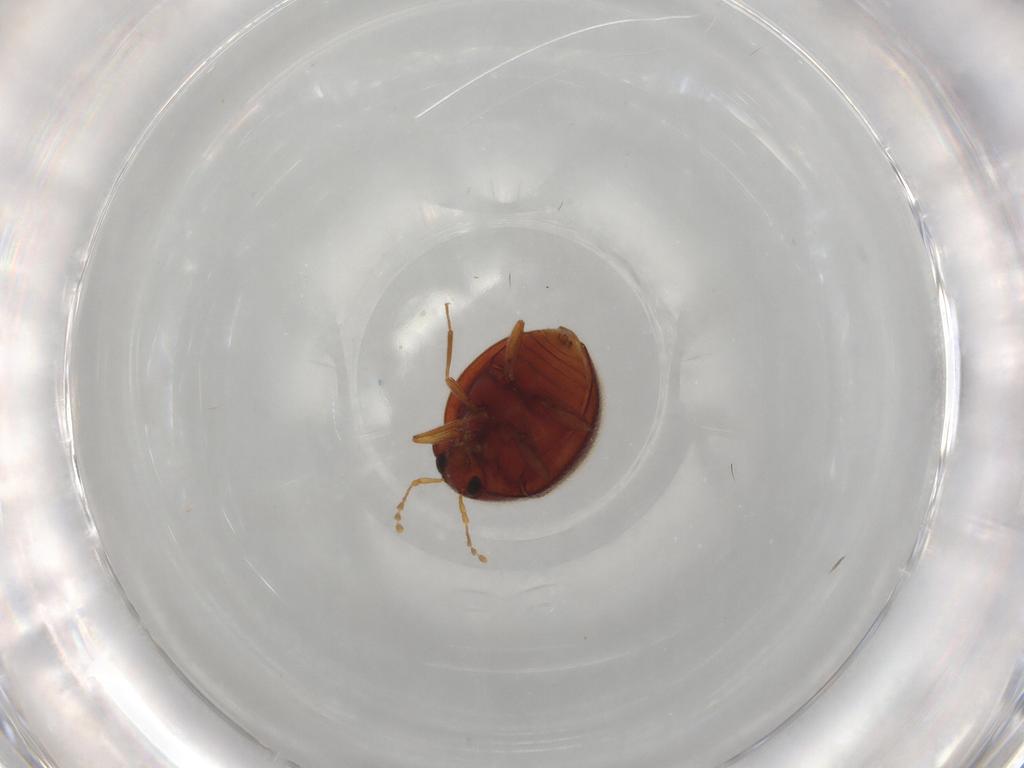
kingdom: Animalia
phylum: Arthropoda
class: Insecta
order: Coleoptera
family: Anamorphidae
